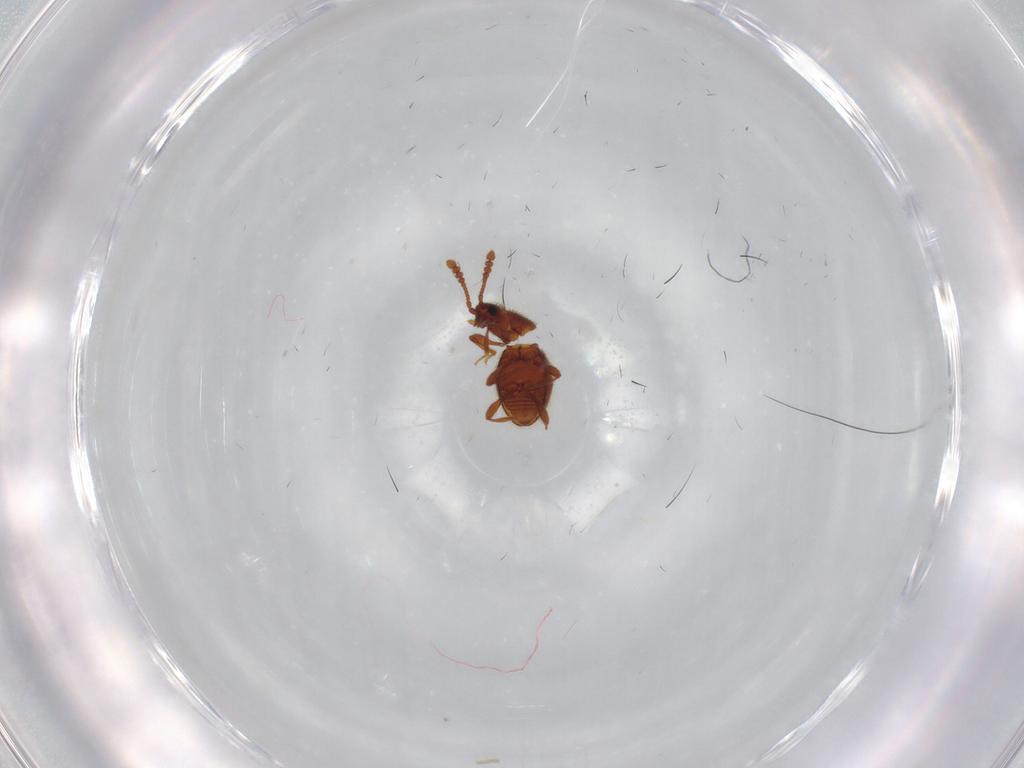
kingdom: Animalia
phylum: Arthropoda
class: Insecta
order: Coleoptera
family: Staphylinidae
